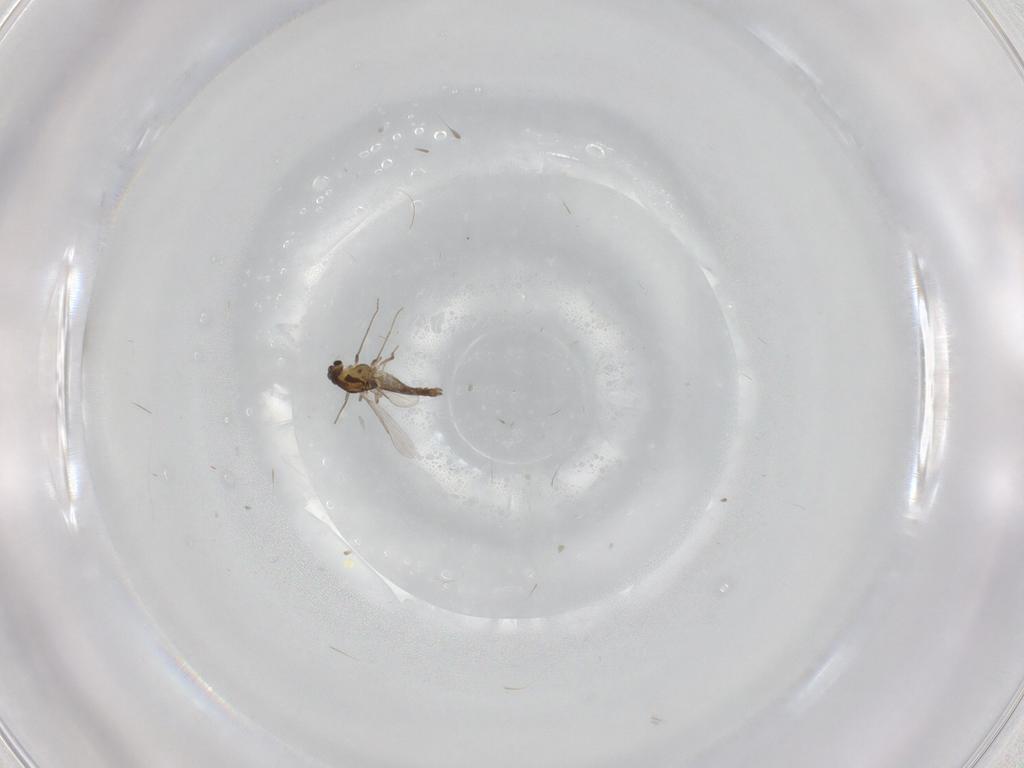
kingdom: Animalia
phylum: Arthropoda
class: Insecta
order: Diptera
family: Chironomidae
